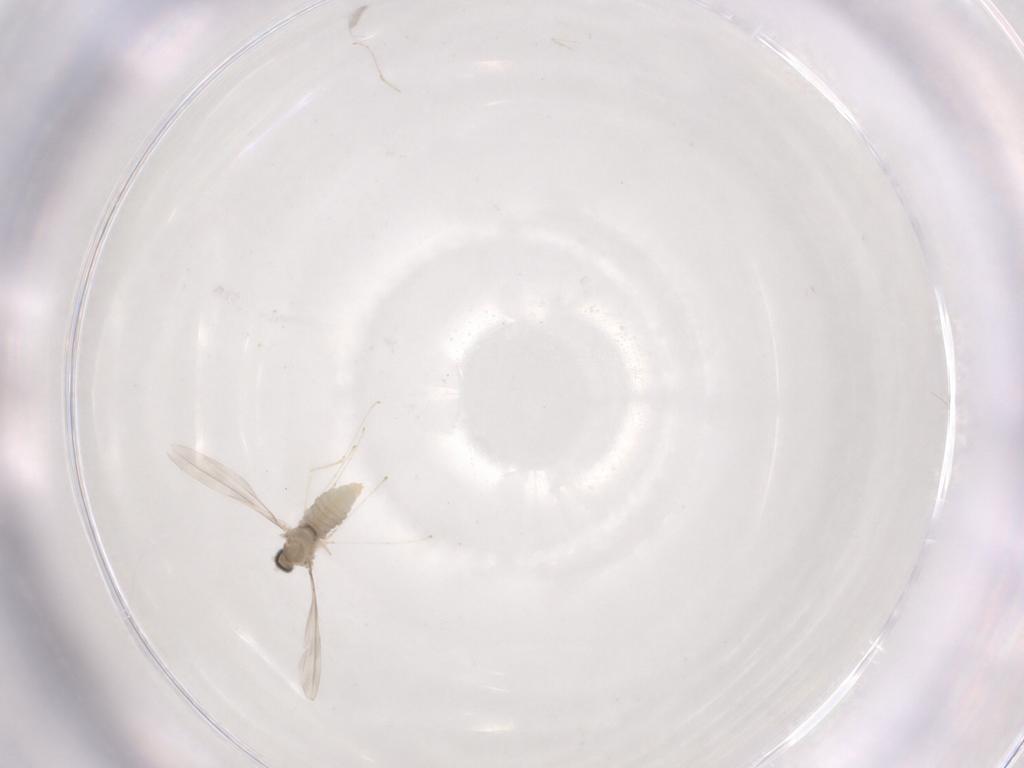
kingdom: Animalia
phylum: Arthropoda
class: Insecta
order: Diptera
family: Cecidomyiidae
